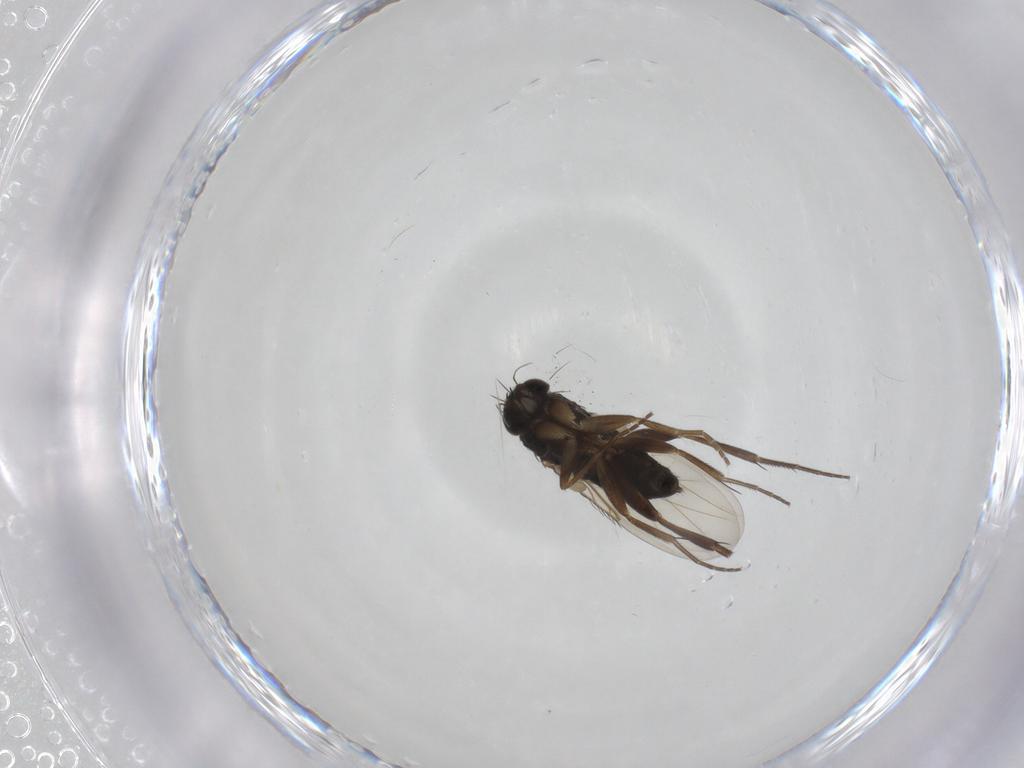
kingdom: Animalia
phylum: Arthropoda
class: Insecta
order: Diptera
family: Phoridae
